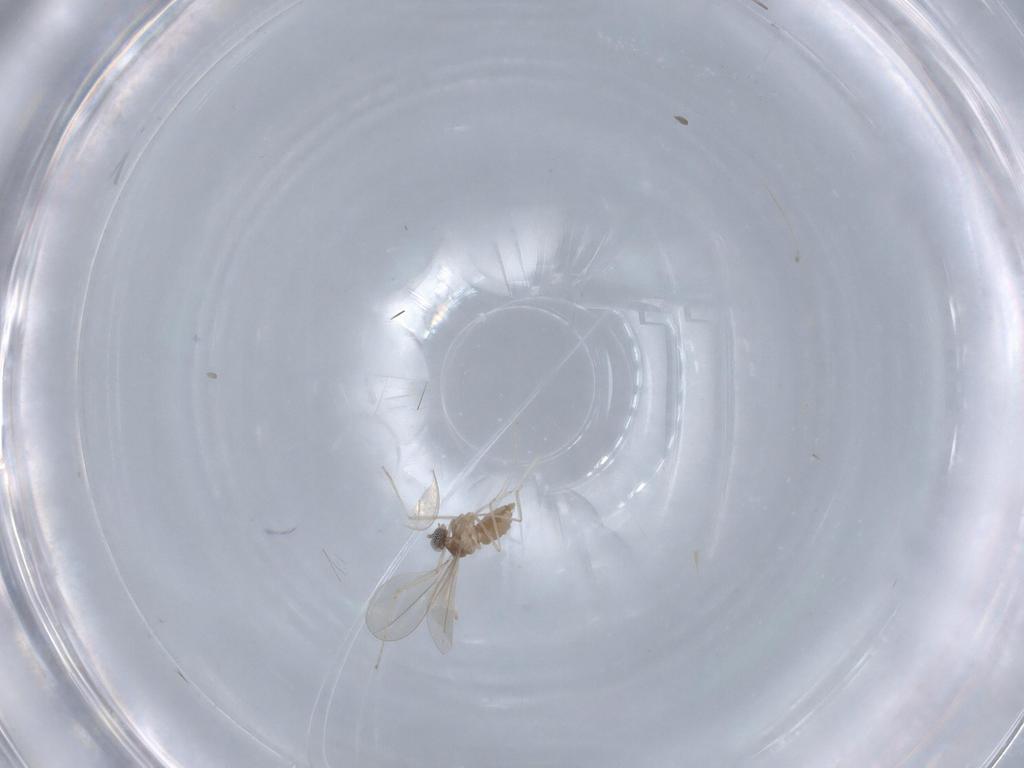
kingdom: Animalia
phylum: Arthropoda
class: Insecta
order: Diptera
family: Cecidomyiidae
